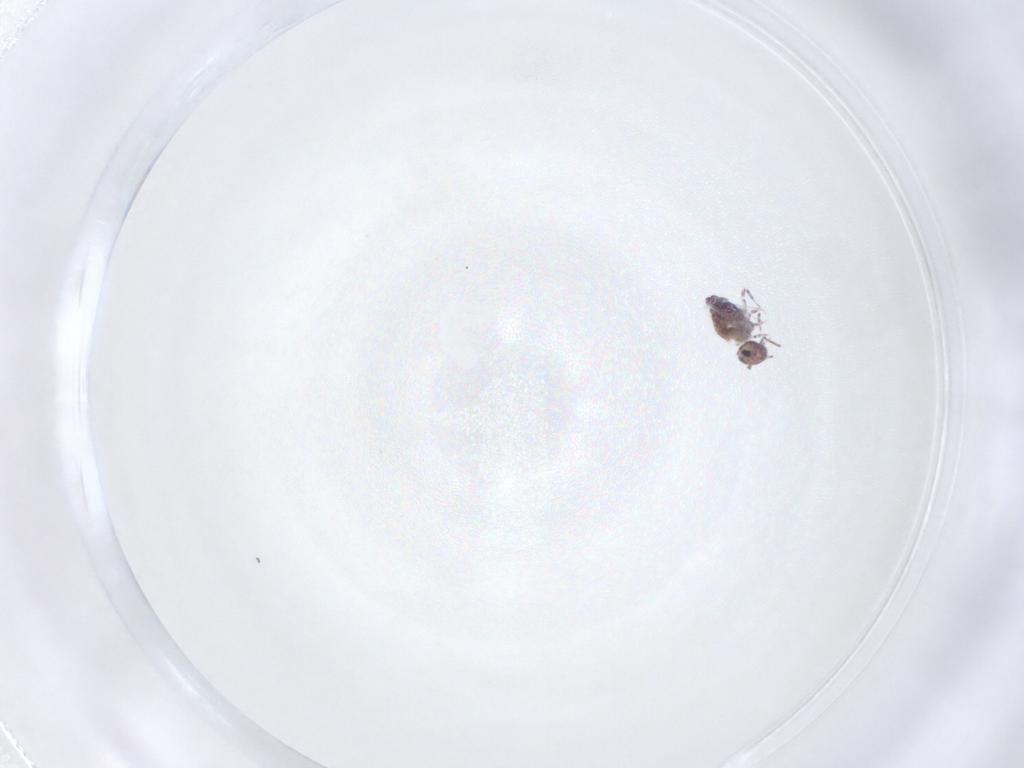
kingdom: Animalia
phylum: Arthropoda
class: Collembola
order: Symphypleona
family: Bourletiellidae
